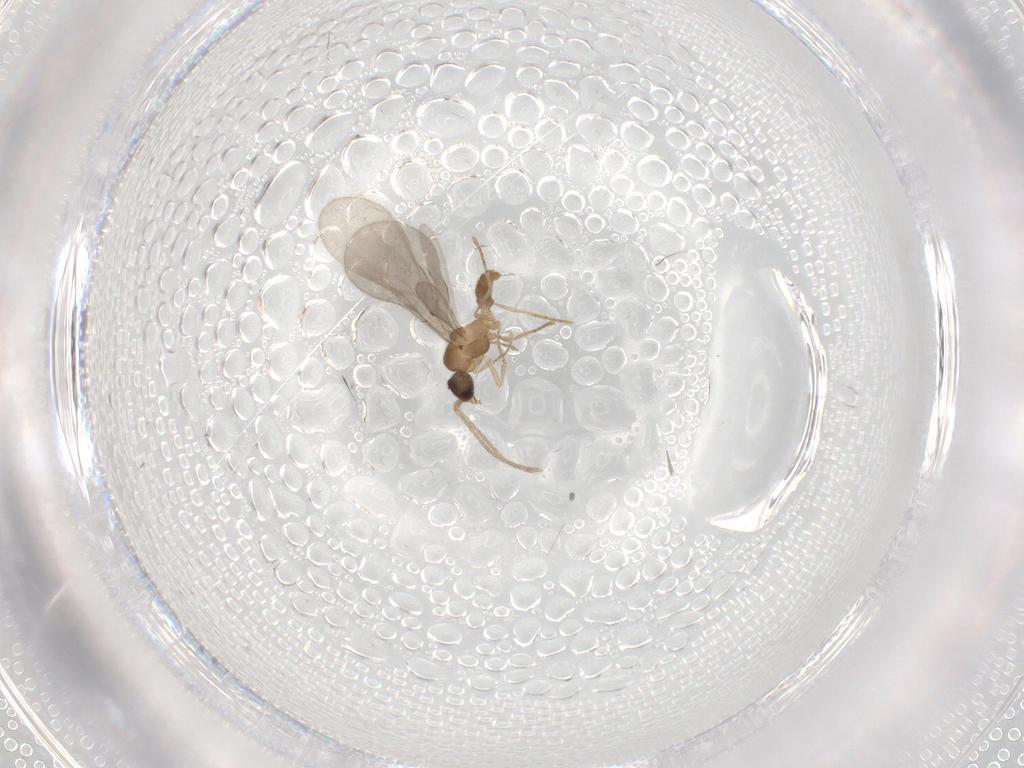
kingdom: Animalia
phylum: Arthropoda
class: Insecta
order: Hymenoptera
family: Formicidae
